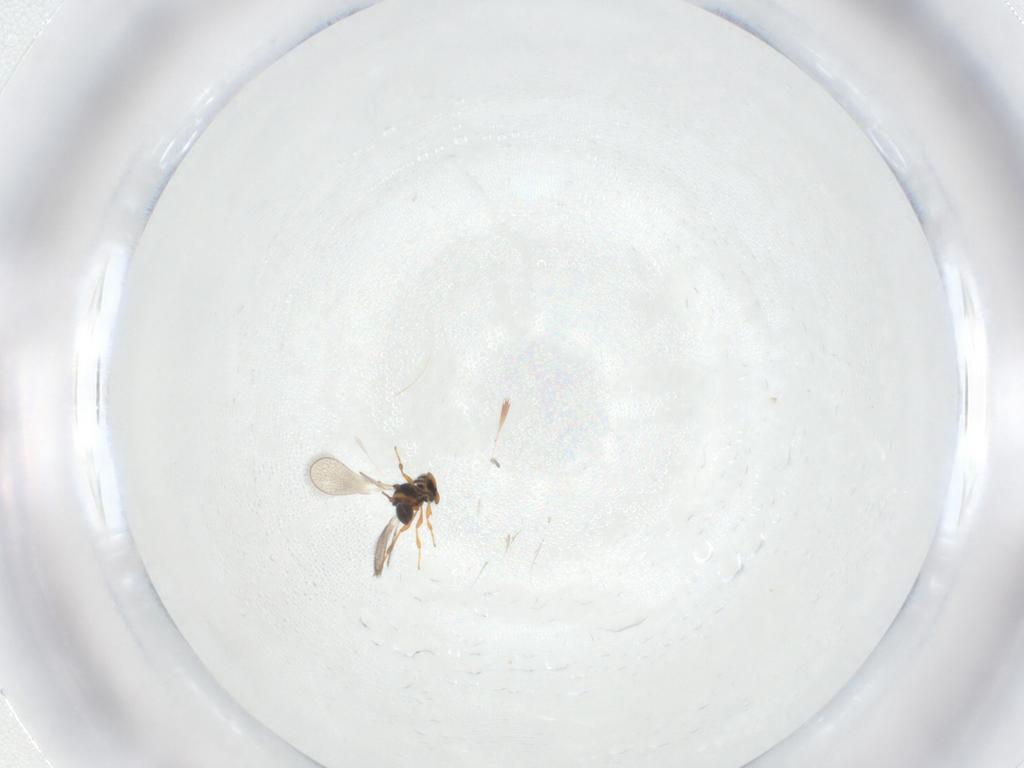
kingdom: Animalia
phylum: Arthropoda
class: Insecta
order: Hymenoptera
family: Platygastridae
